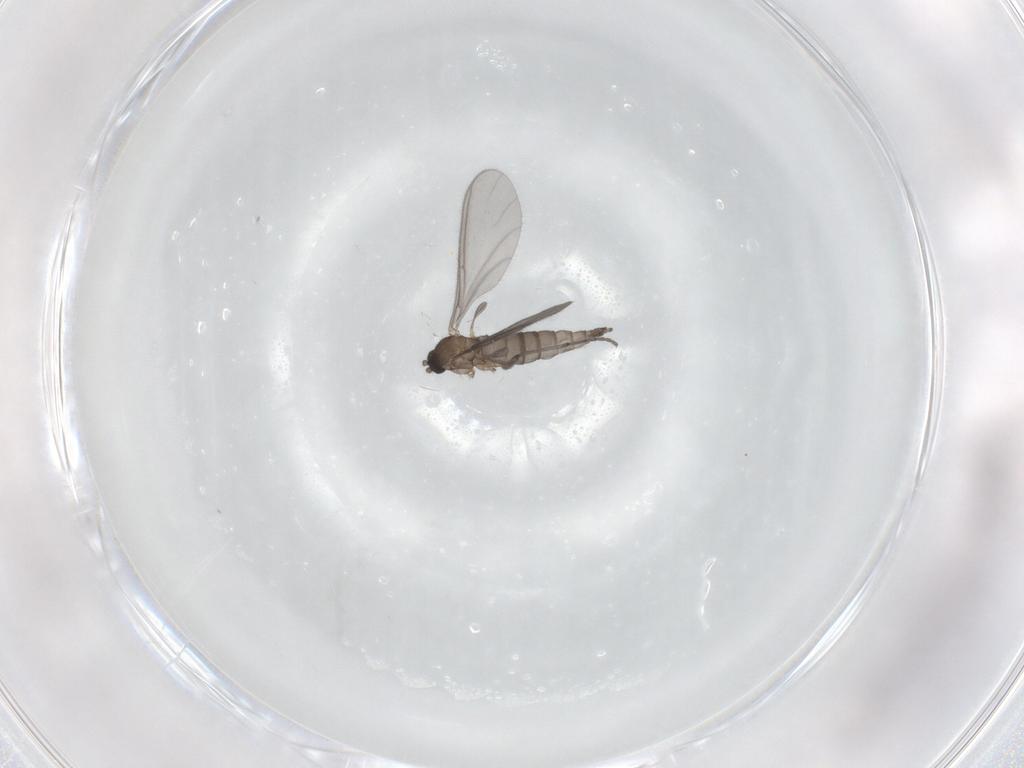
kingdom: Animalia
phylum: Arthropoda
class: Insecta
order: Diptera
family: Sciaridae
